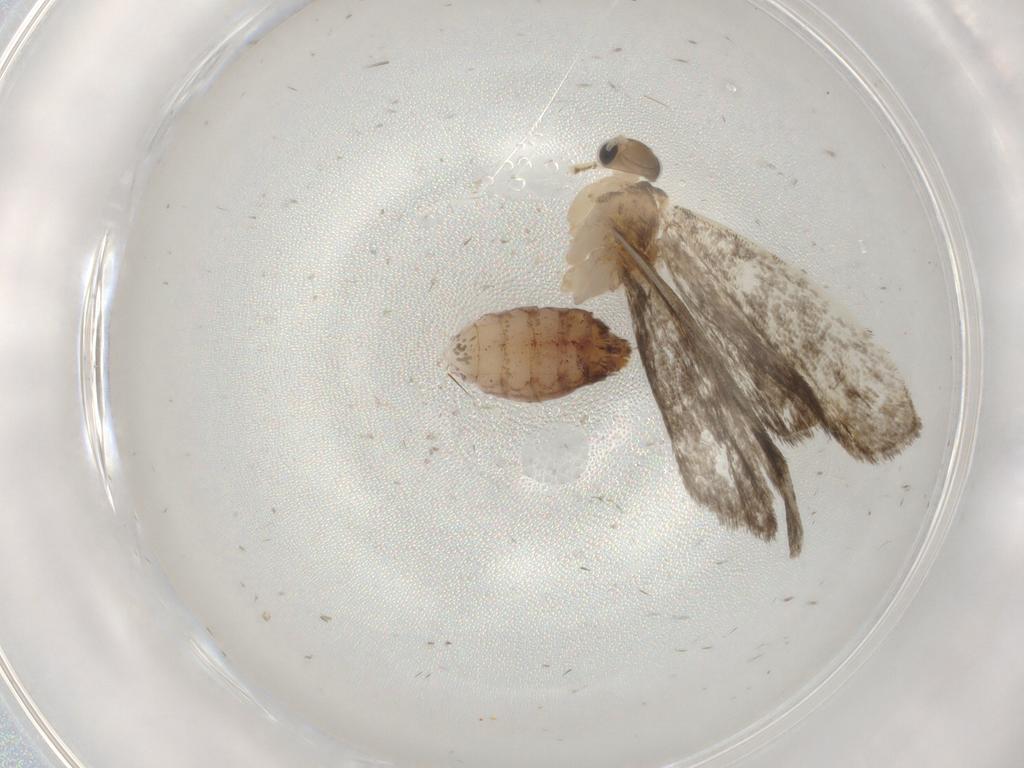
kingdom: Animalia
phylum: Arthropoda
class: Insecta
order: Lepidoptera
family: Tineidae
